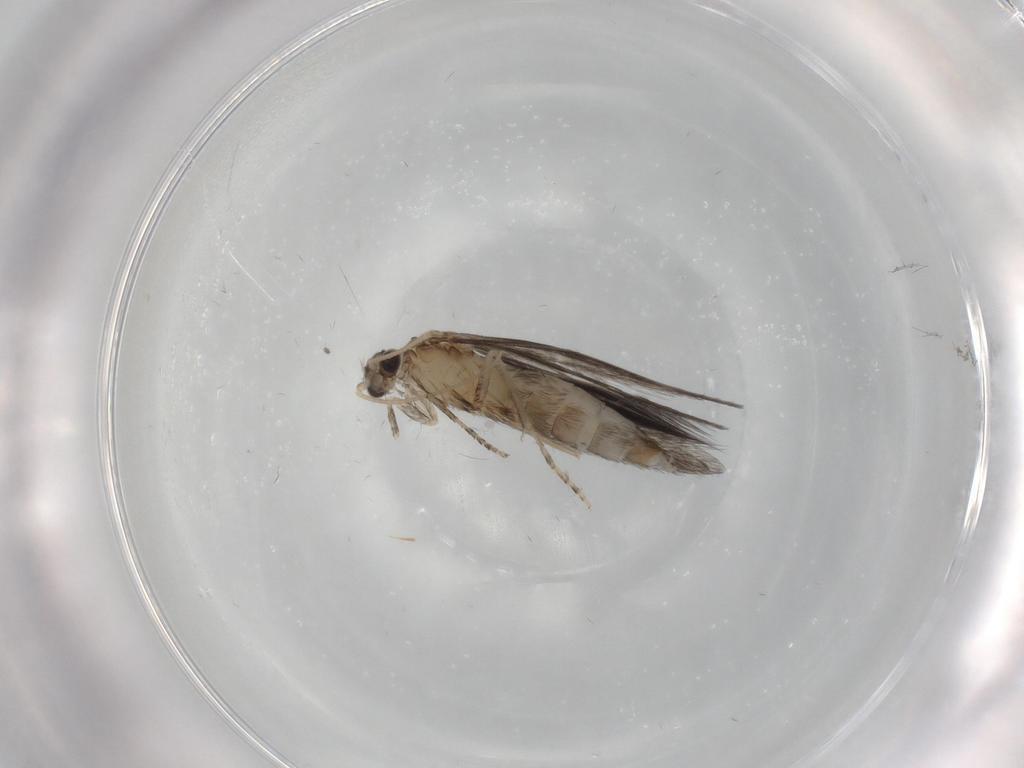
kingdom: Animalia
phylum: Arthropoda
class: Insecta
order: Trichoptera
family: Hydroptilidae
